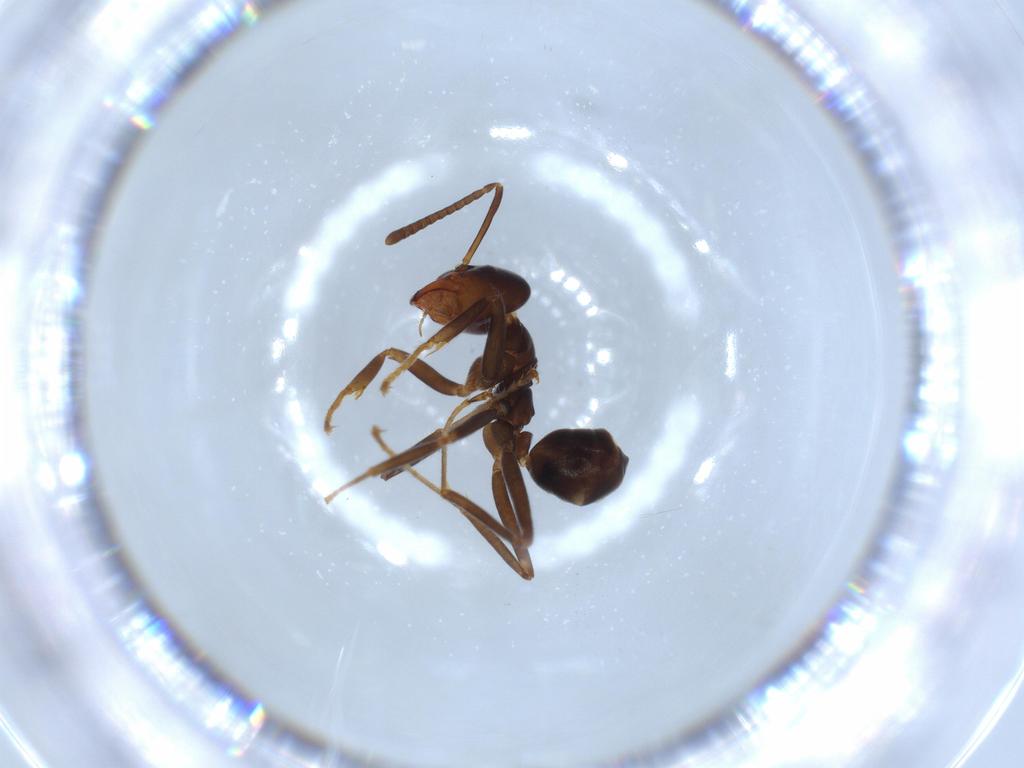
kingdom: Animalia
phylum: Arthropoda
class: Insecta
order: Hymenoptera
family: Formicidae
